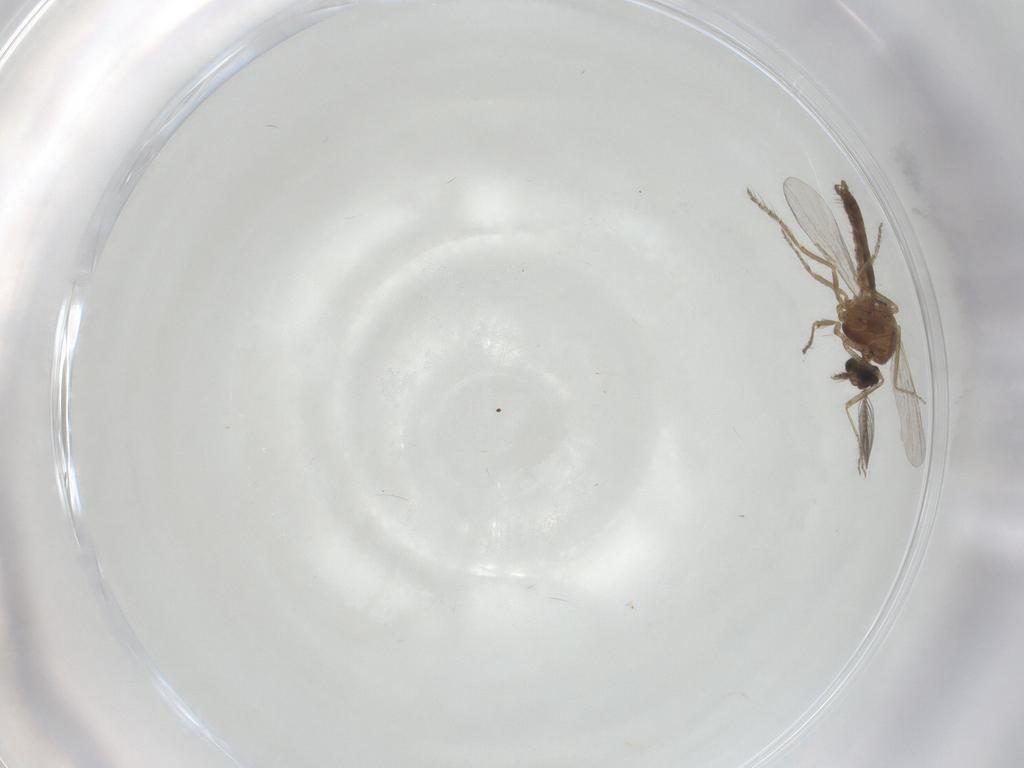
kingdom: Animalia
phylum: Arthropoda
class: Insecta
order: Diptera
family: Ceratopogonidae
